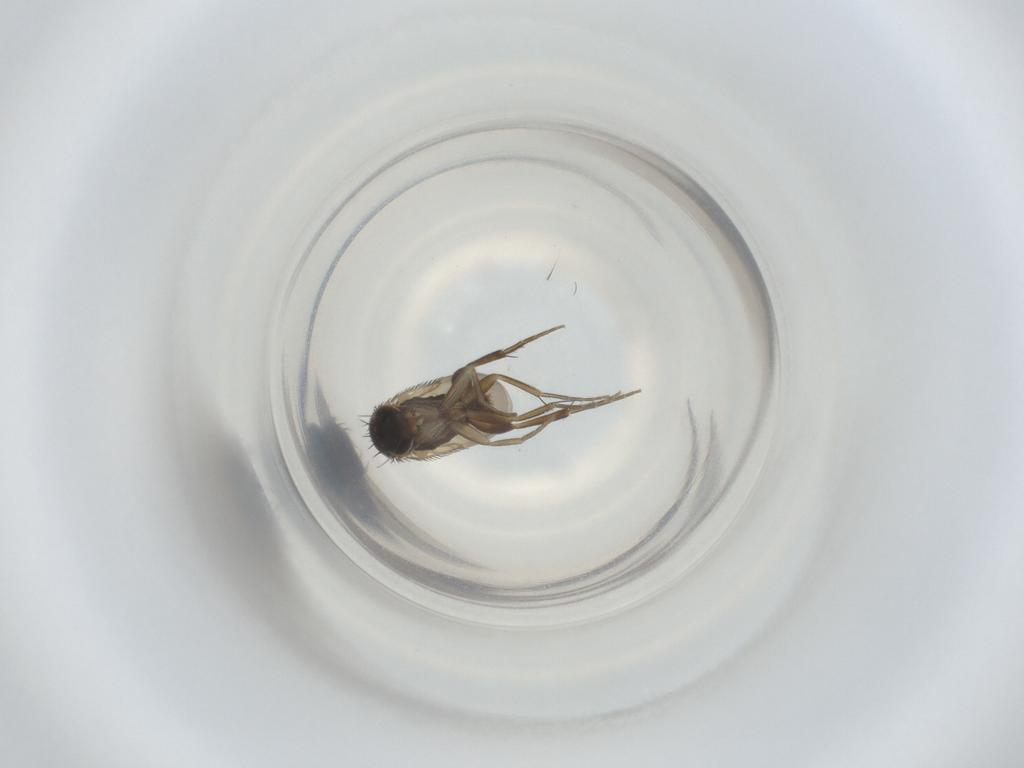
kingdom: Animalia
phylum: Arthropoda
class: Insecta
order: Diptera
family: Phoridae
